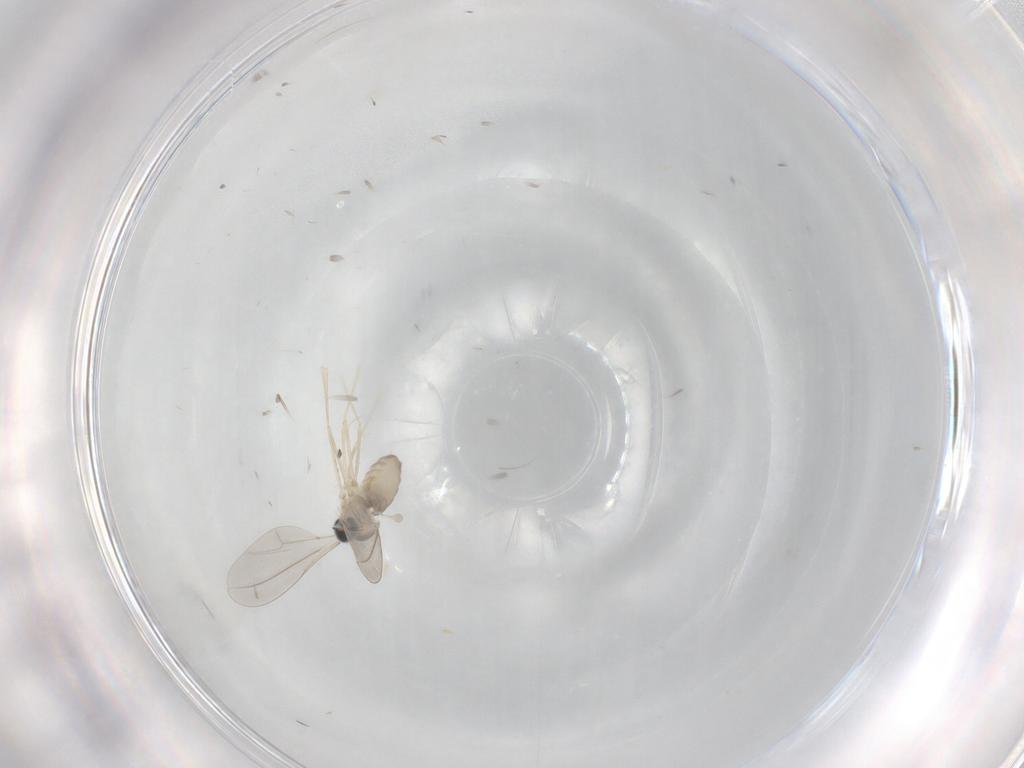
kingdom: Animalia
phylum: Arthropoda
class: Insecta
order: Diptera
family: Cecidomyiidae
